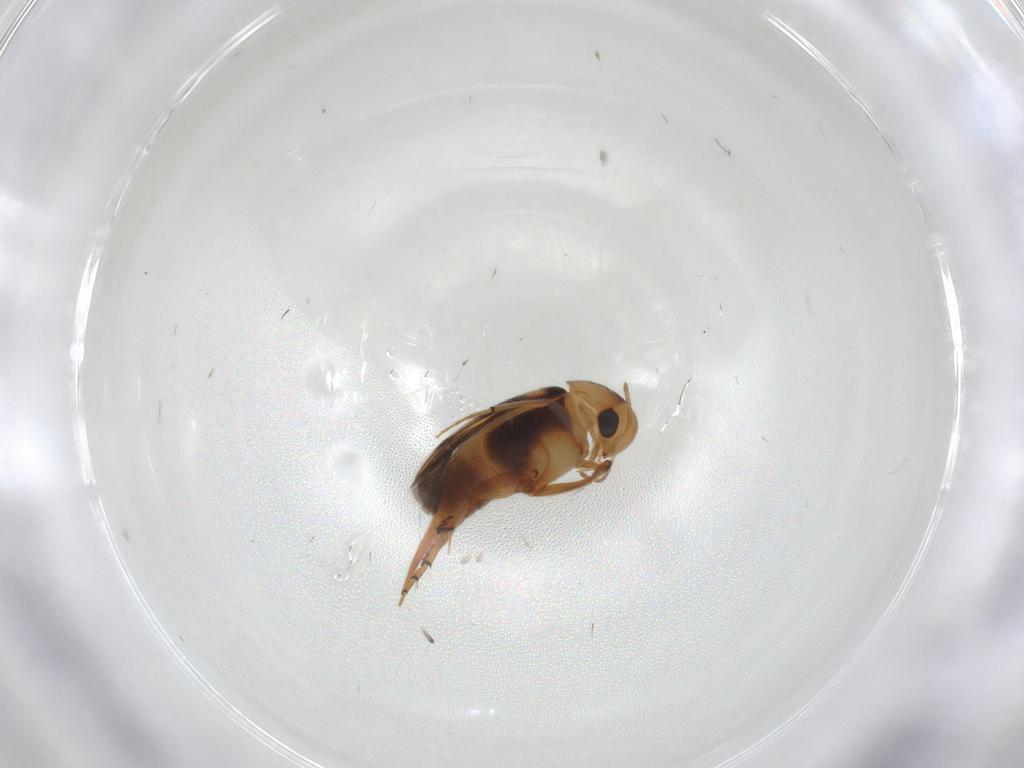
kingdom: Animalia
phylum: Arthropoda
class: Insecta
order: Coleoptera
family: Mordellidae
